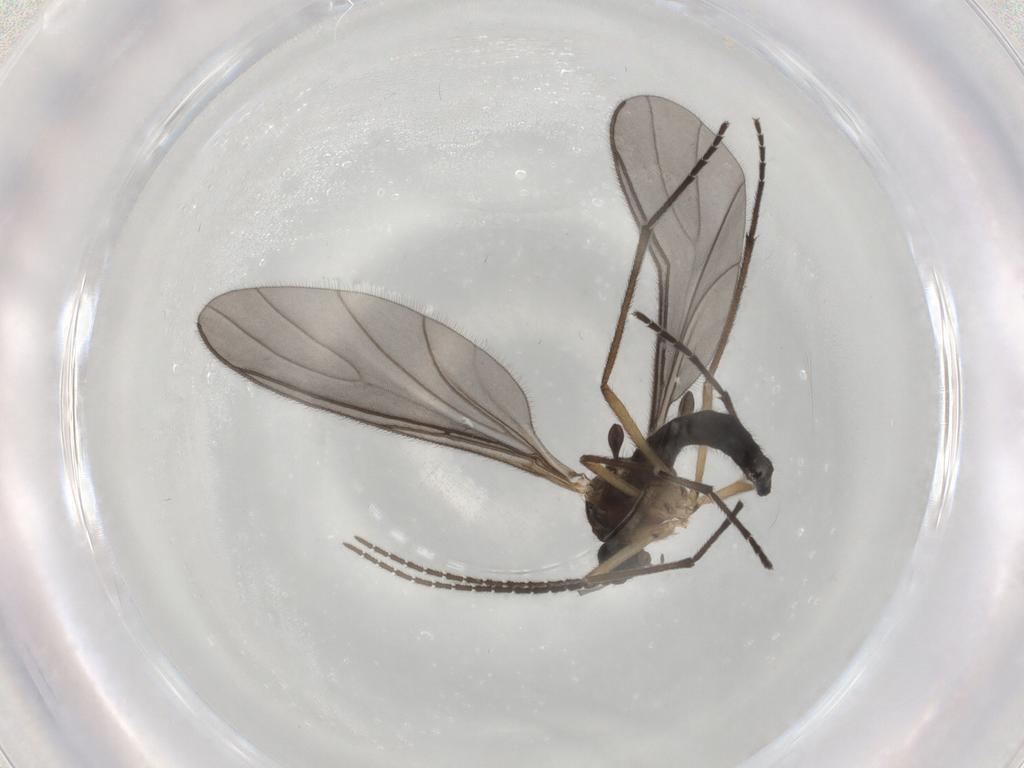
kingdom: Animalia
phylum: Arthropoda
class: Insecta
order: Diptera
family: Sciaridae
